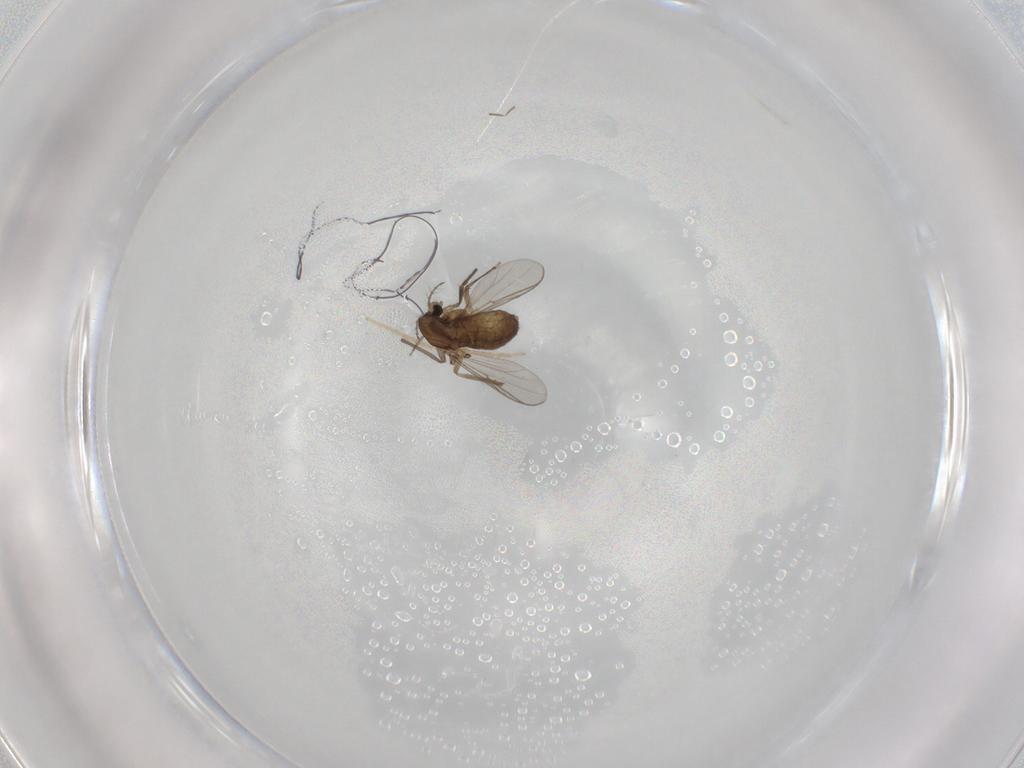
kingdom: Animalia
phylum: Arthropoda
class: Insecta
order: Diptera
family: Chironomidae
